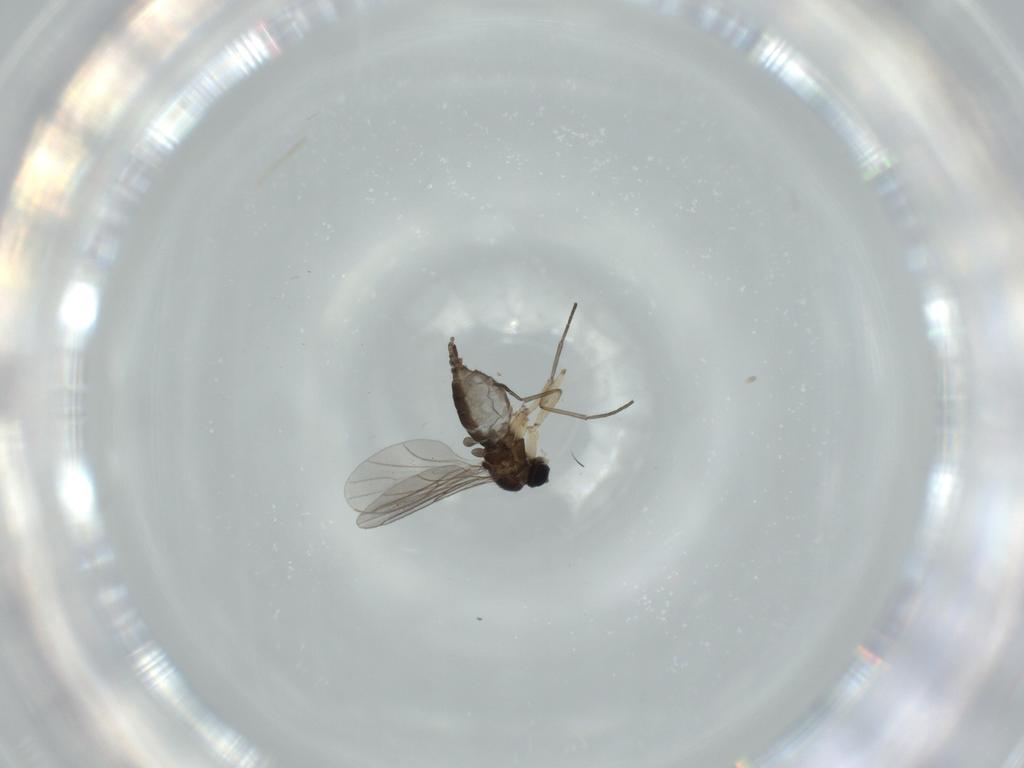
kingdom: Animalia
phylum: Arthropoda
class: Insecta
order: Diptera
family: Sciaridae
